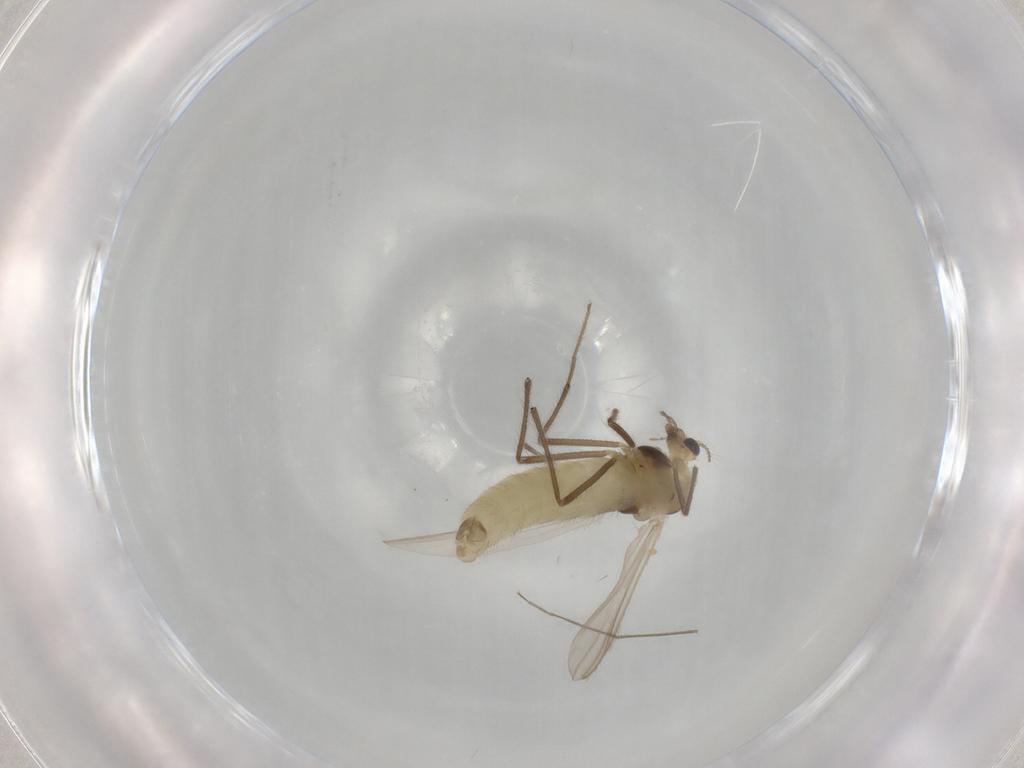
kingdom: Animalia
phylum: Arthropoda
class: Insecta
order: Diptera
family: Chironomidae
